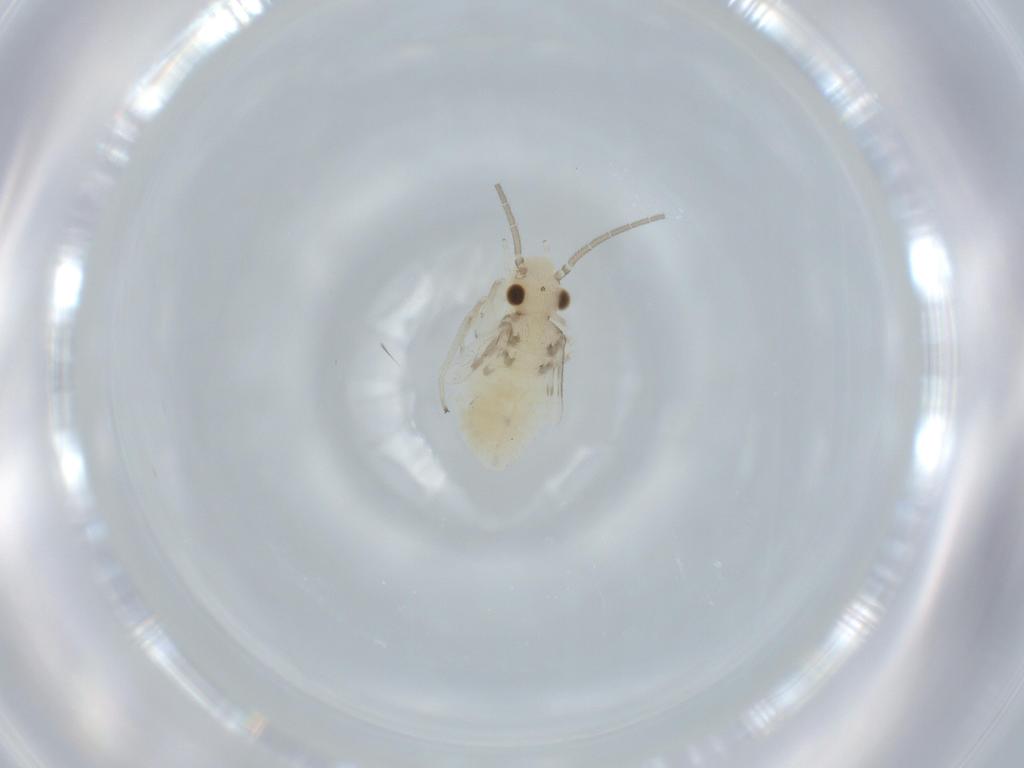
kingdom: Animalia
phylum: Arthropoda
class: Insecta
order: Psocodea
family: Caeciliusidae
